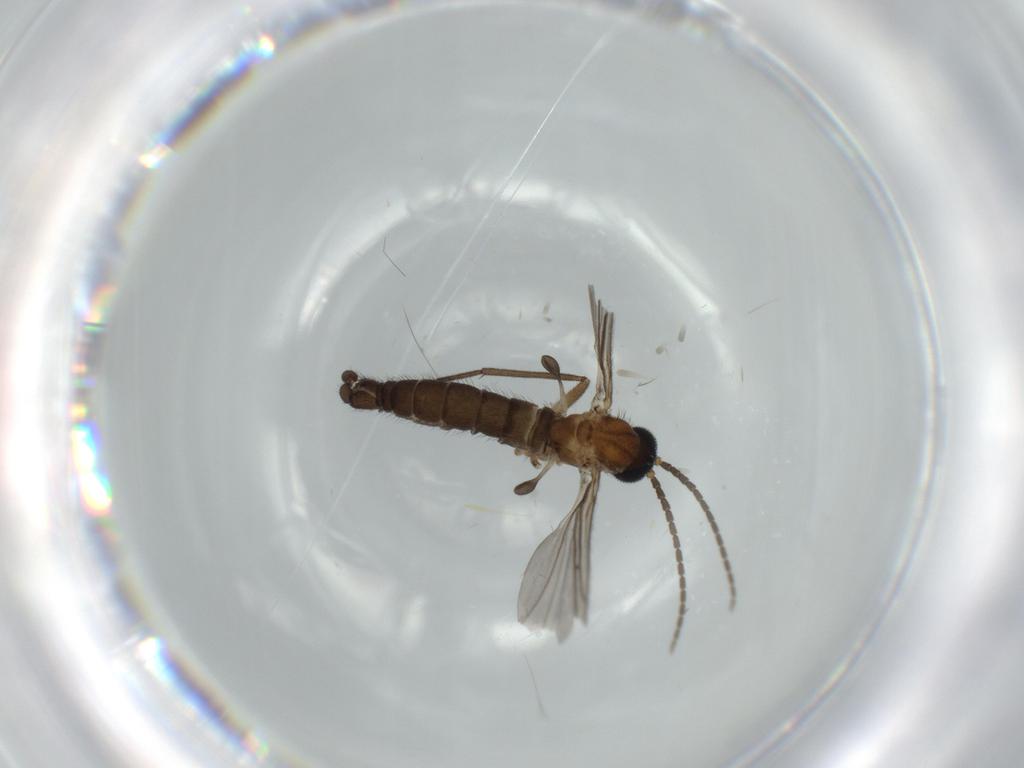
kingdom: Animalia
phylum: Arthropoda
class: Insecta
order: Diptera
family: Sciaridae
